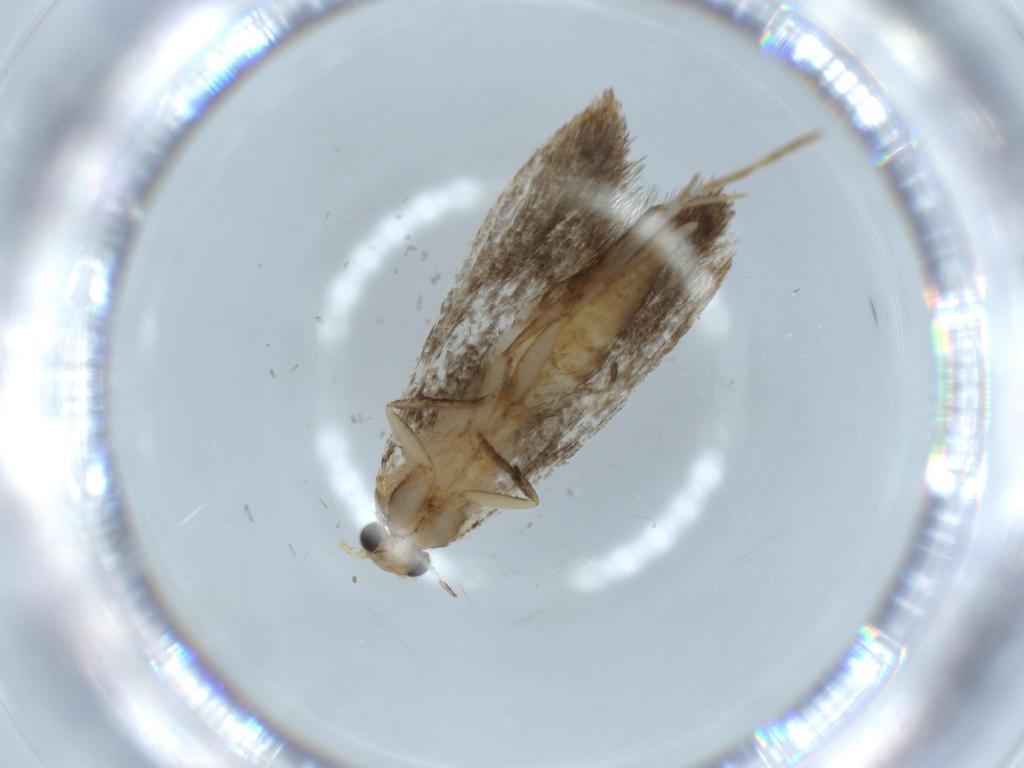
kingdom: Animalia
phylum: Arthropoda
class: Insecta
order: Lepidoptera
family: Tineidae
